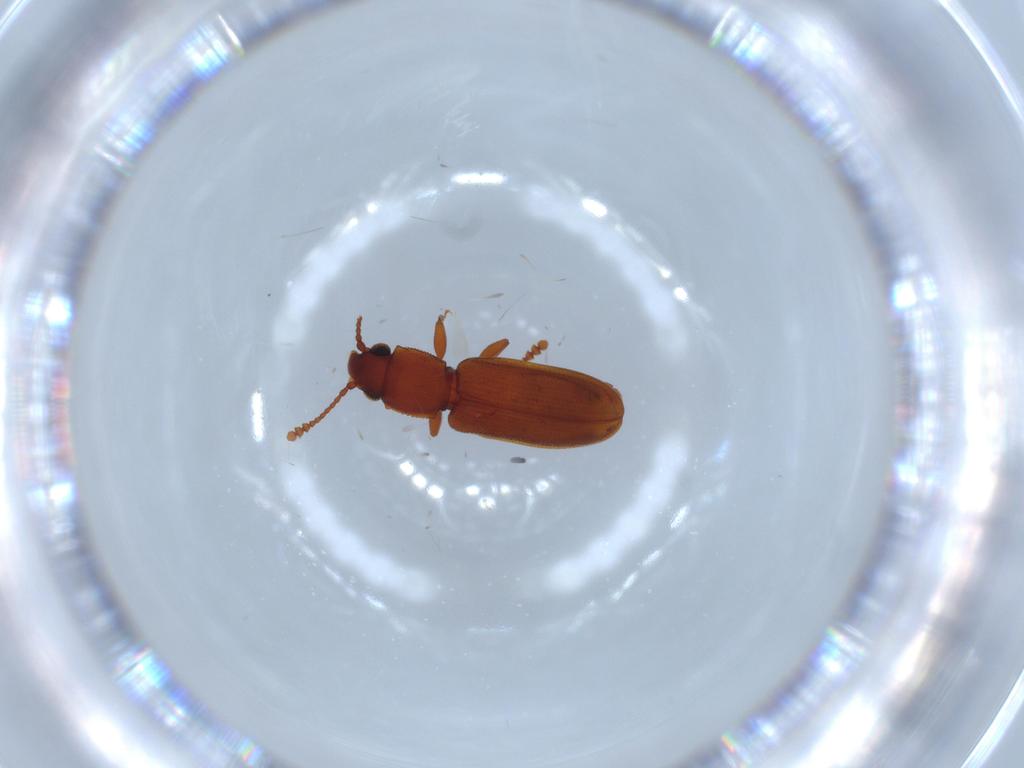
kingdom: Animalia
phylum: Arthropoda
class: Insecta
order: Coleoptera
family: Silvanidae
